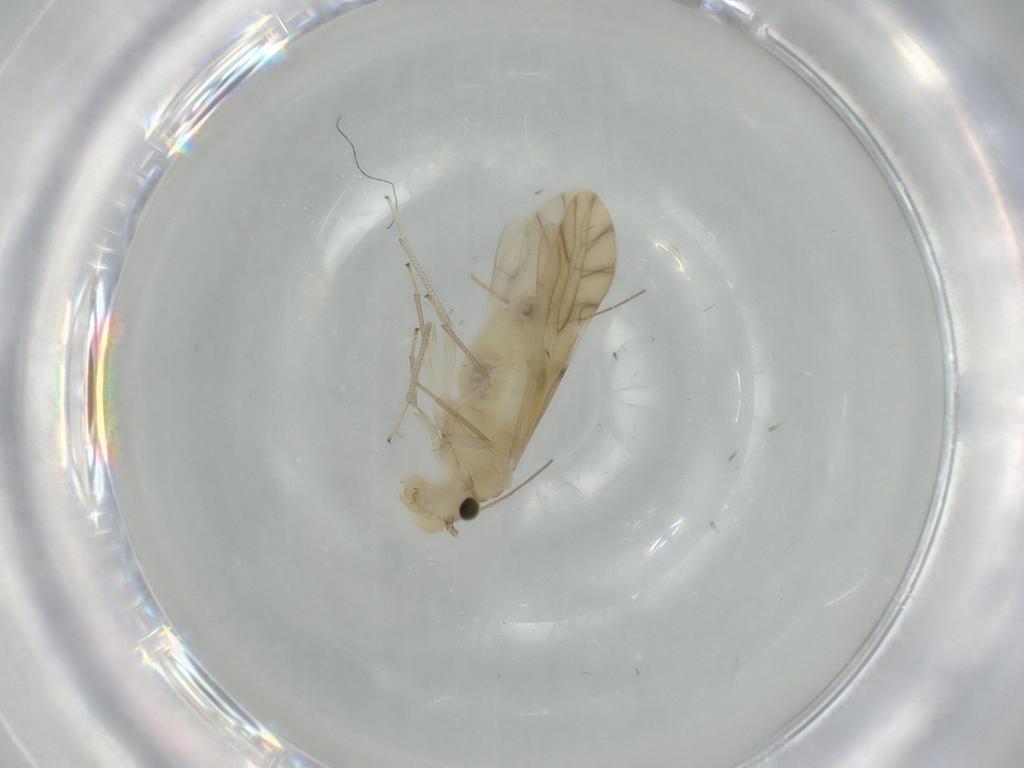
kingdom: Animalia
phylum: Arthropoda
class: Insecta
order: Psocodea
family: Caeciliusidae
